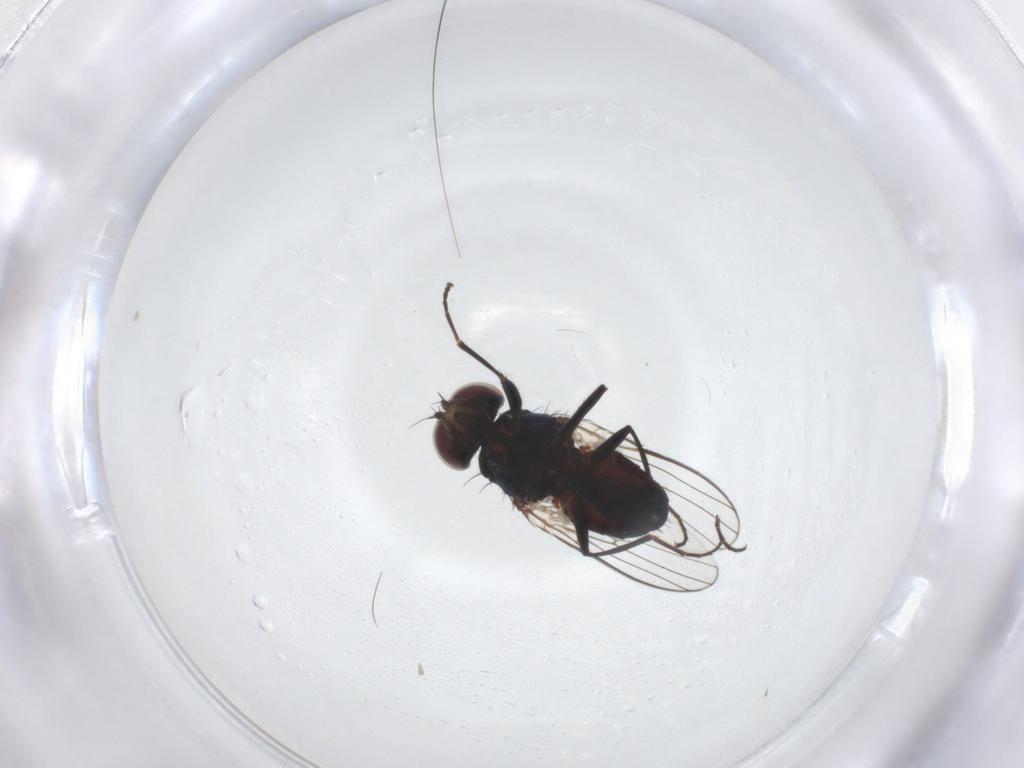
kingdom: Animalia
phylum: Arthropoda
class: Insecta
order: Diptera
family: Carnidae
